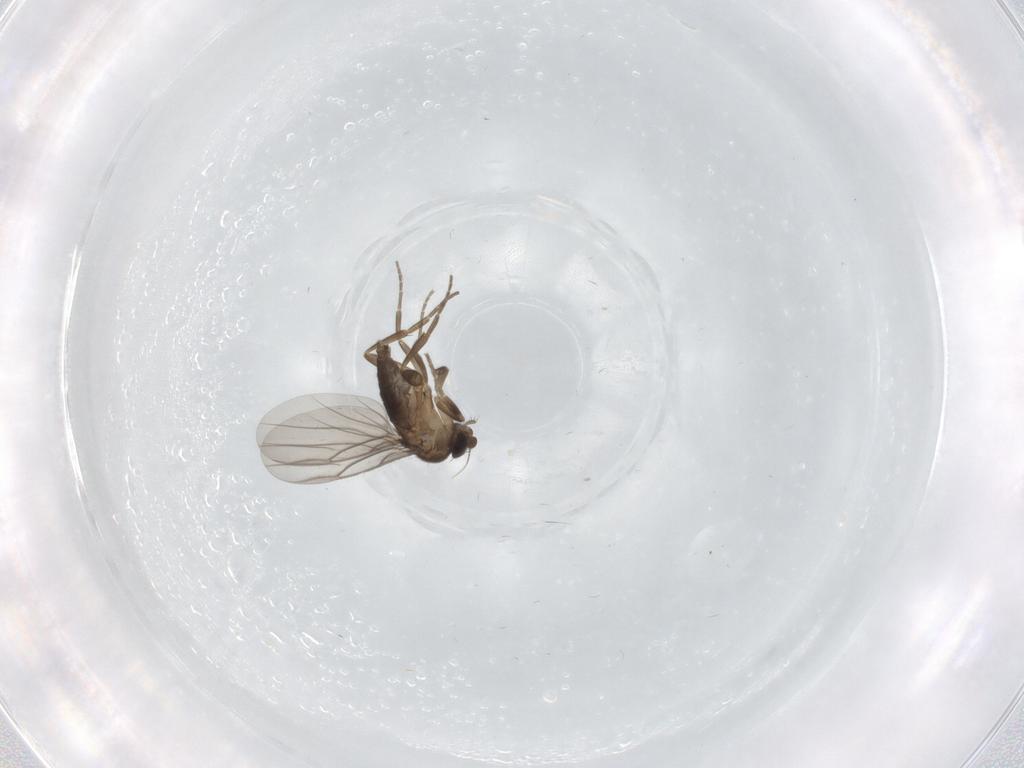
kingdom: Animalia
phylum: Arthropoda
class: Insecta
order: Diptera
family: Phoridae
